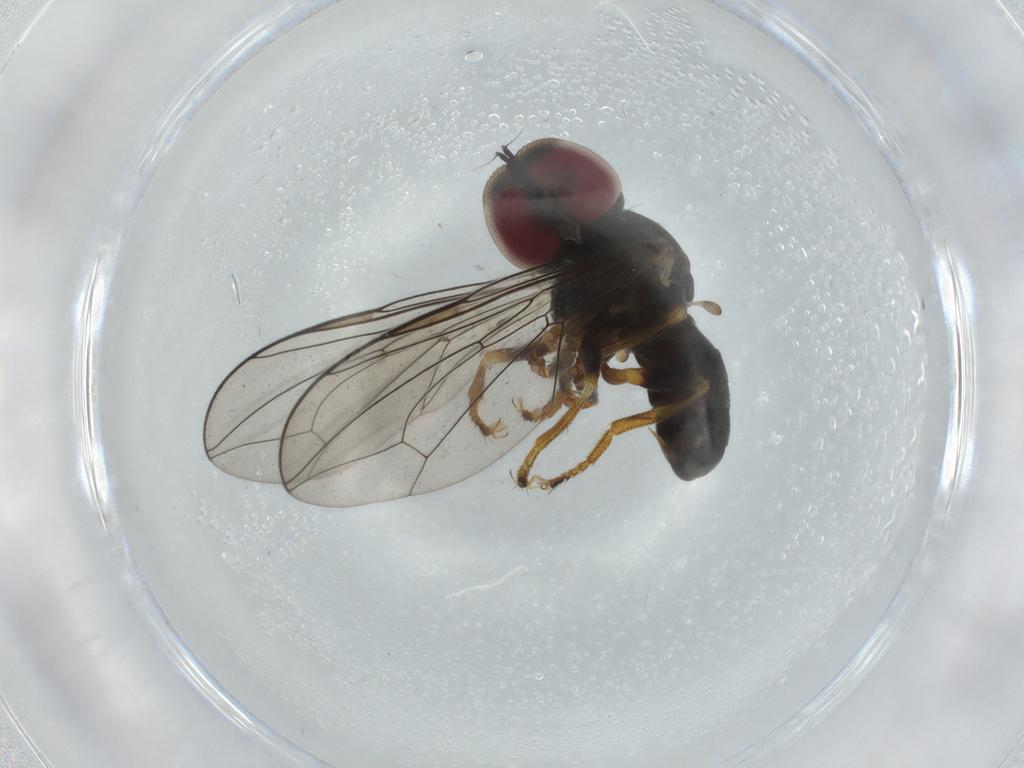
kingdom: Animalia
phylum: Arthropoda
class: Insecta
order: Diptera
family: Pipunculidae
